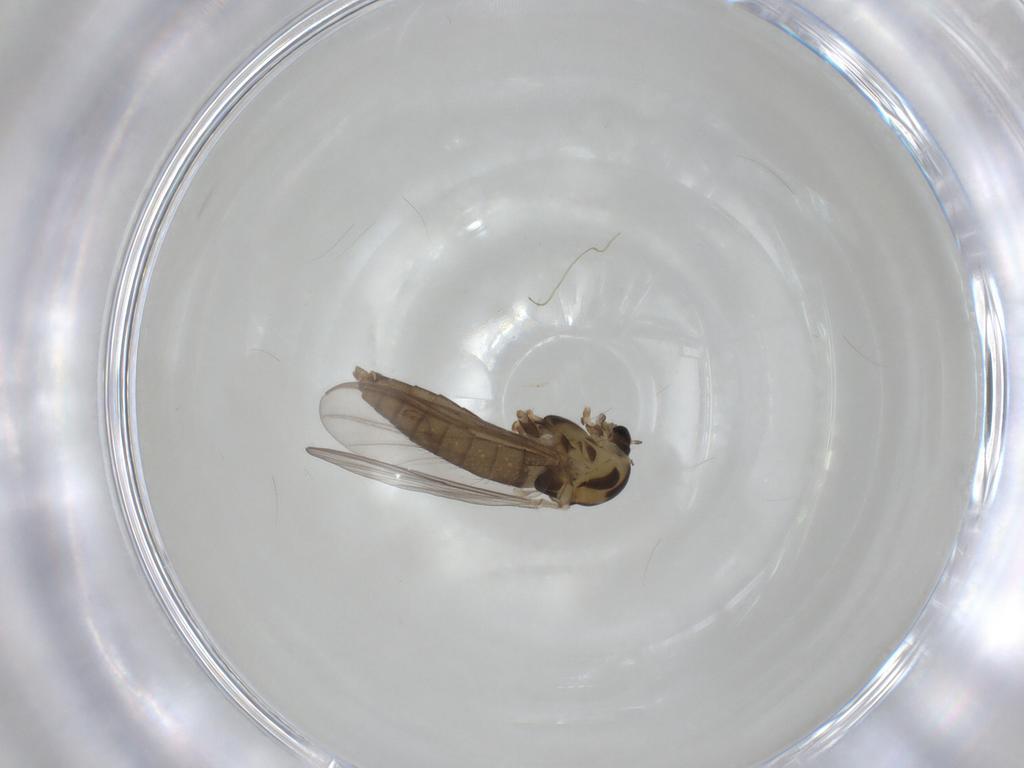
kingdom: Animalia
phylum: Arthropoda
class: Insecta
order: Diptera
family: Chironomidae
